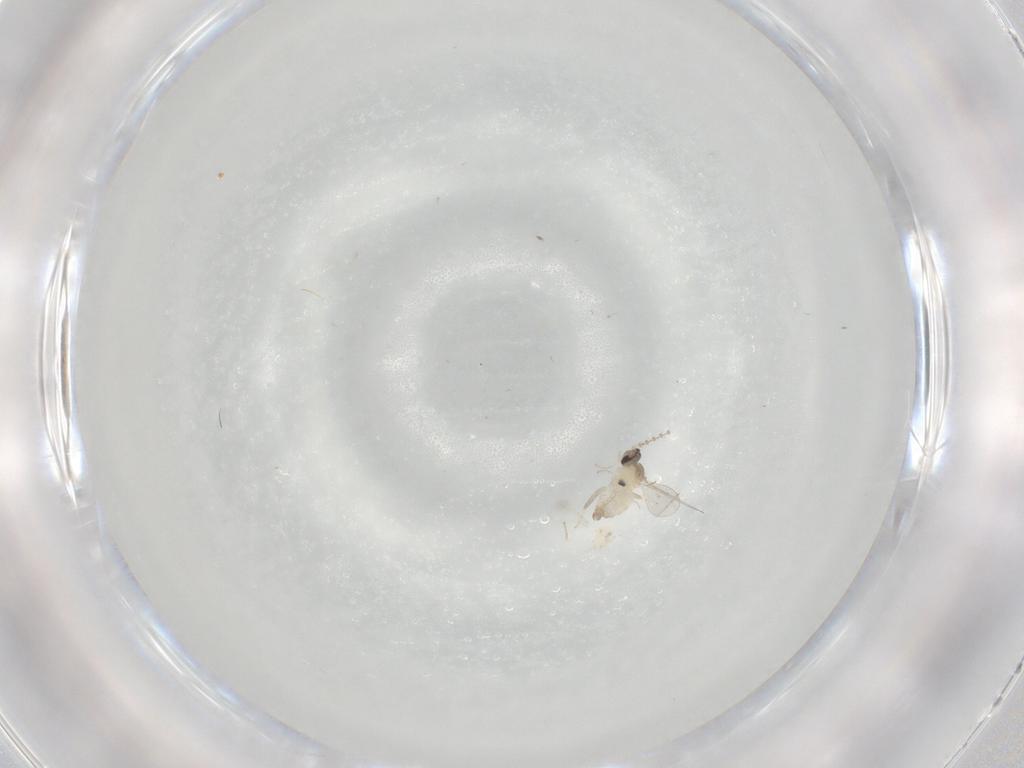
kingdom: Animalia
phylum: Arthropoda
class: Insecta
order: Diptera
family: Cecidomyiidae
